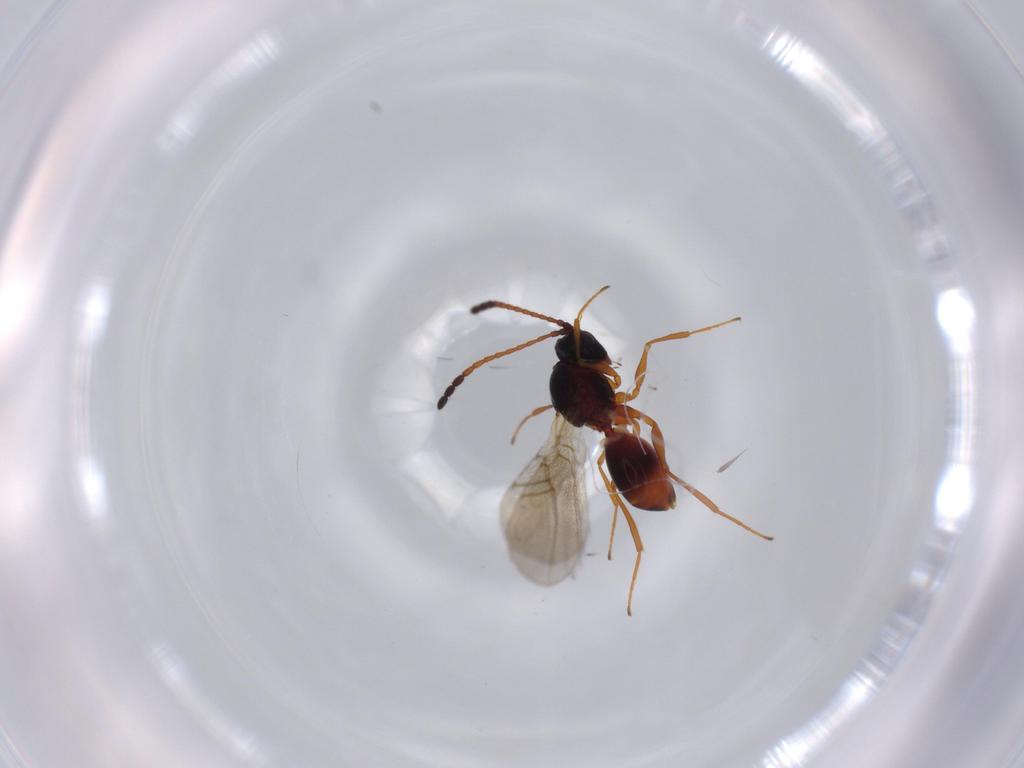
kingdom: Animalia
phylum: Arthropoda
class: Insecta
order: Hymenoptera
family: Figitidae
